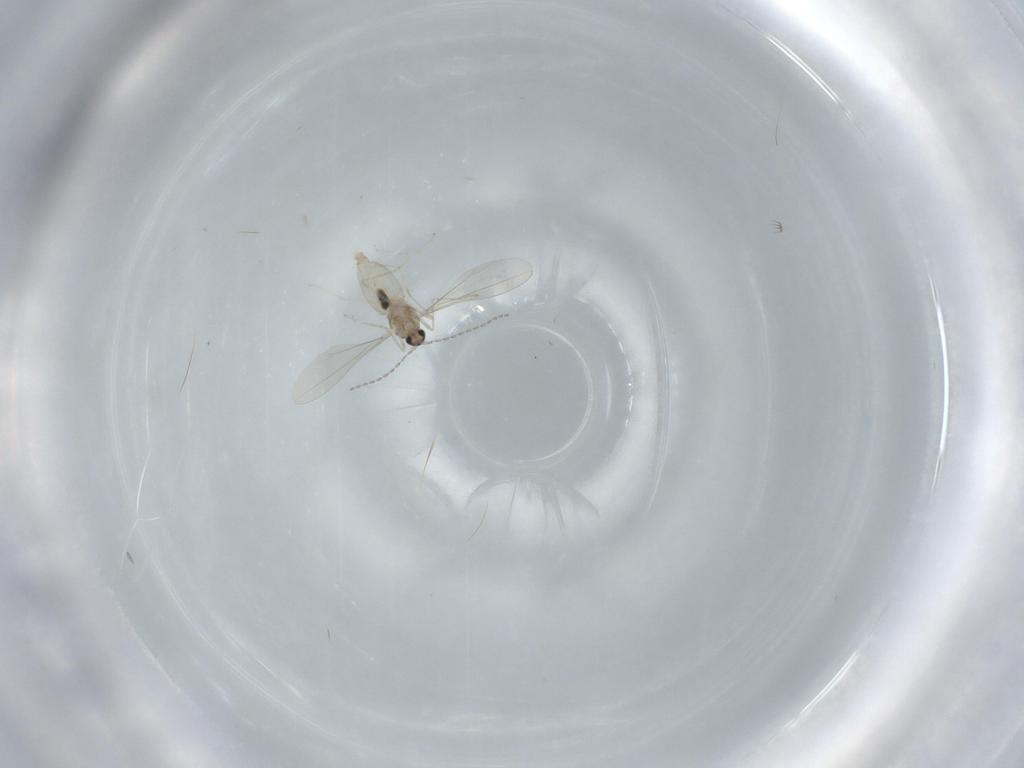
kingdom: Animalia
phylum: Arthropoda
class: Insecta
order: Diptera
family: Cecidomyiidae
